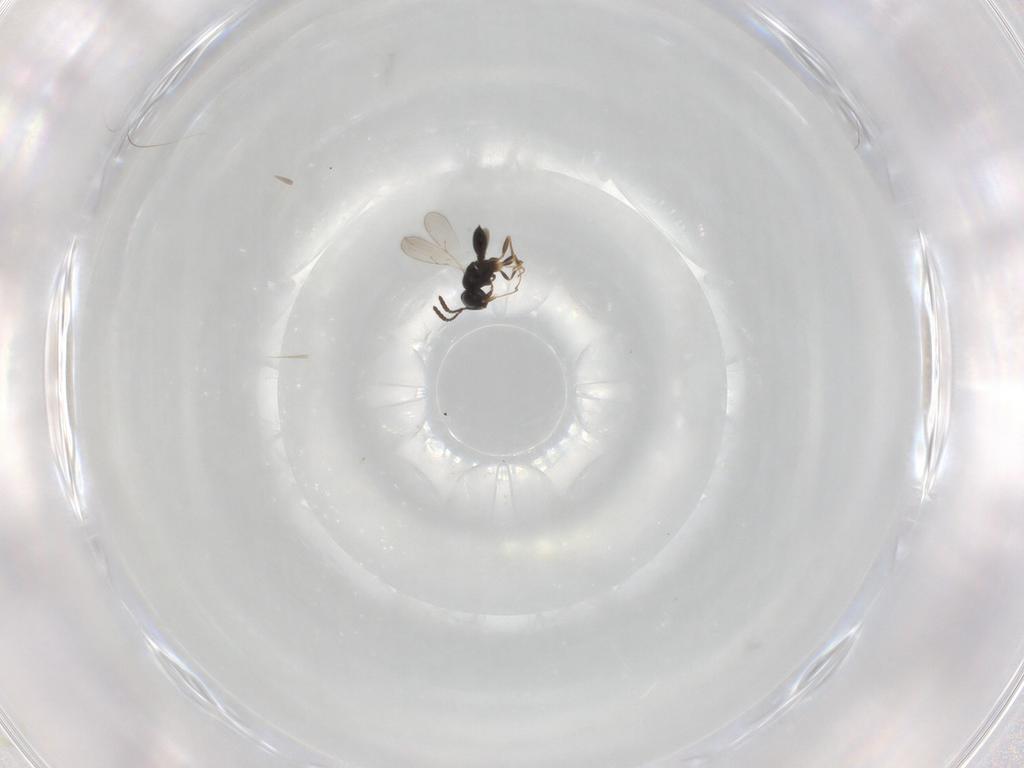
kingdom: Animalia
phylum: Arthropoda
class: Insecta
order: Hymenoptera
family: Scelionidae
